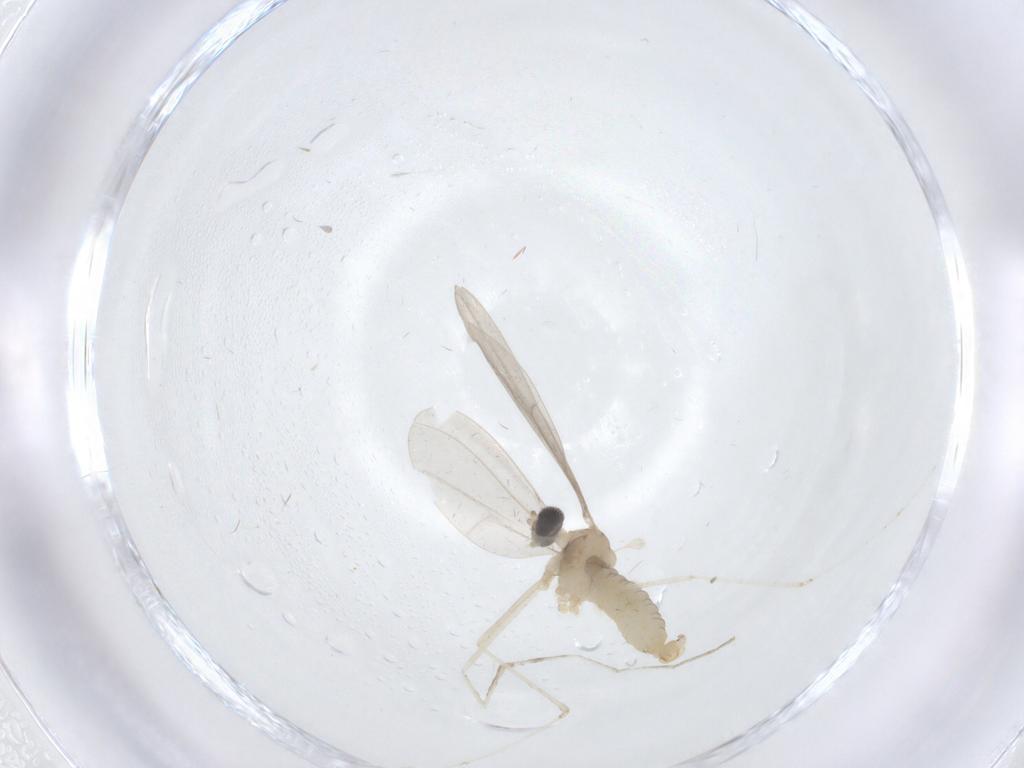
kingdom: Animalia
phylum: Arthropoda
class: Insecta
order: Diptera
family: Cecidomyiidae
